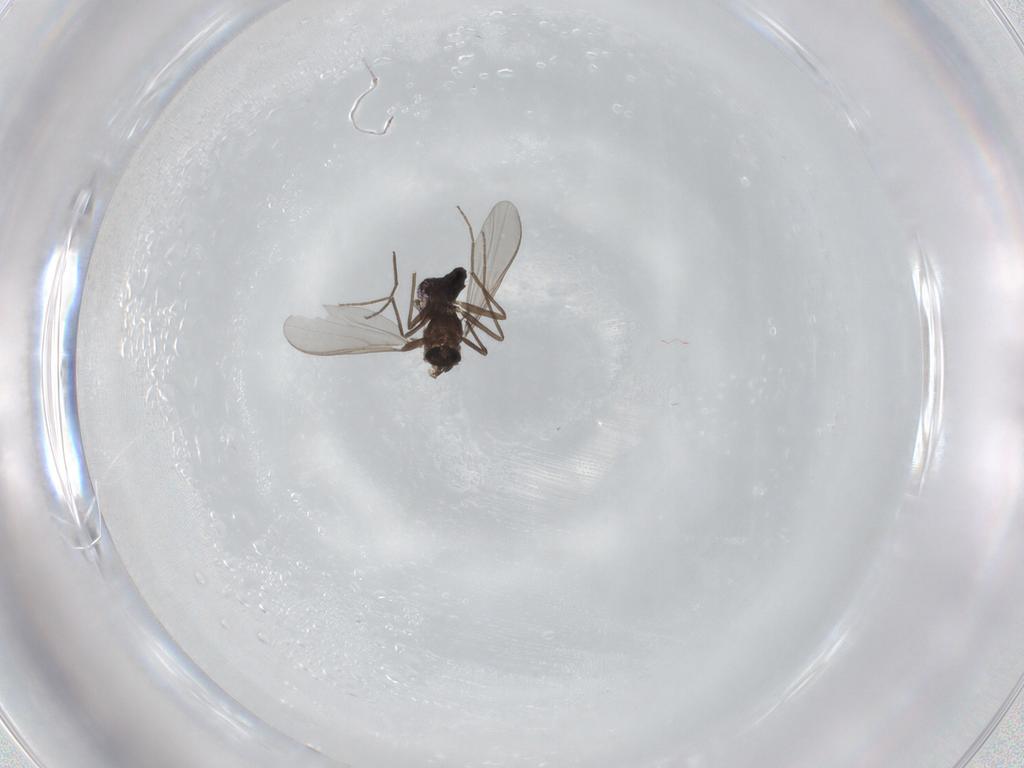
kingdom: Animalia
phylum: Arthropoda
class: Insecta
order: Diptera
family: Chironomidae
